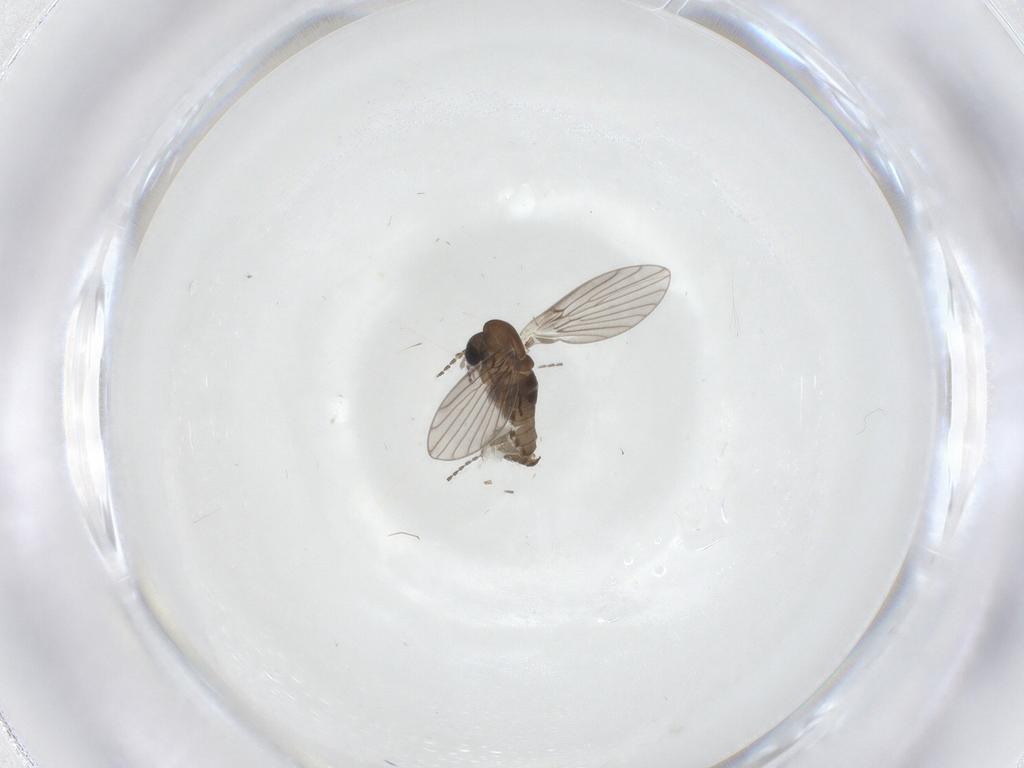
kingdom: Animalia
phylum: Arthropoda
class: Insecta
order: Diptera
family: Psychodidae
